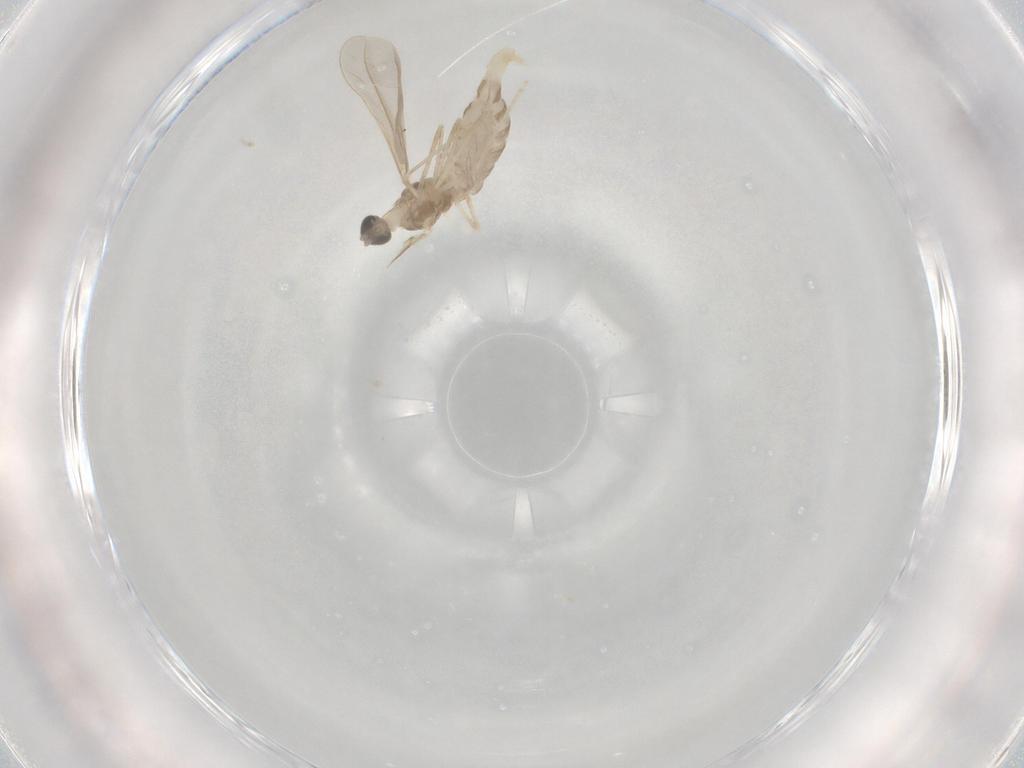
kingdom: Animalia
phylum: Arthropoda
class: Insecta
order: Diptera
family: Cecidomyiidae
